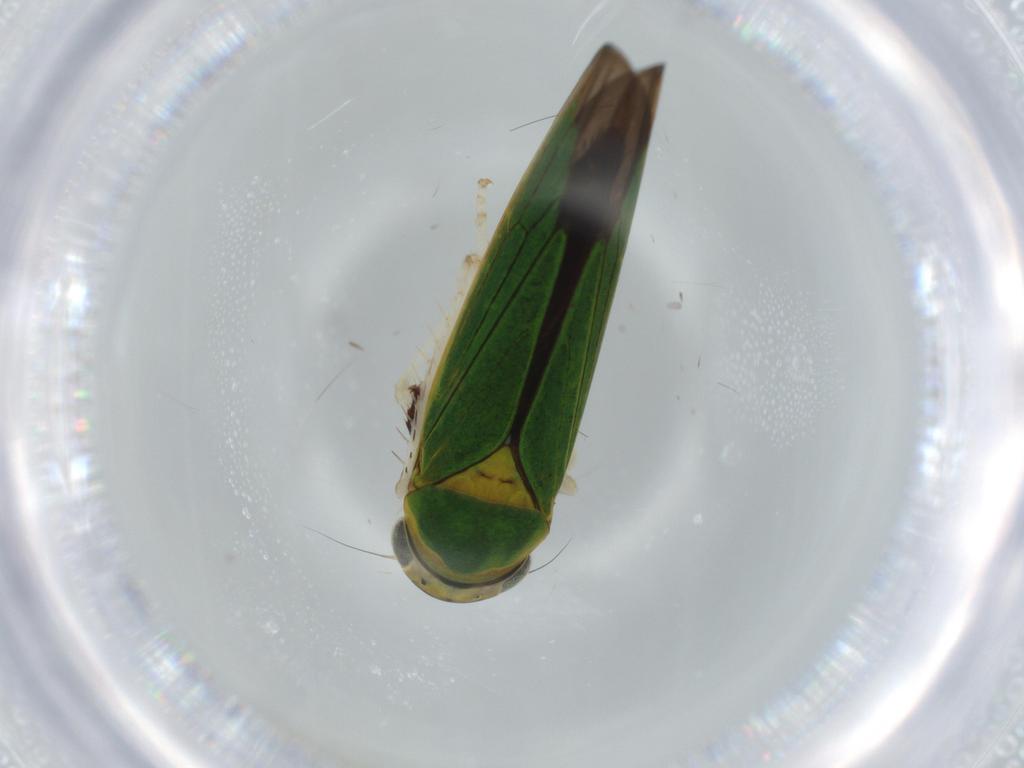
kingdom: Animalia
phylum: Arthropoda
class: Insecta
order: Hemiptera
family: Cicadellidae
